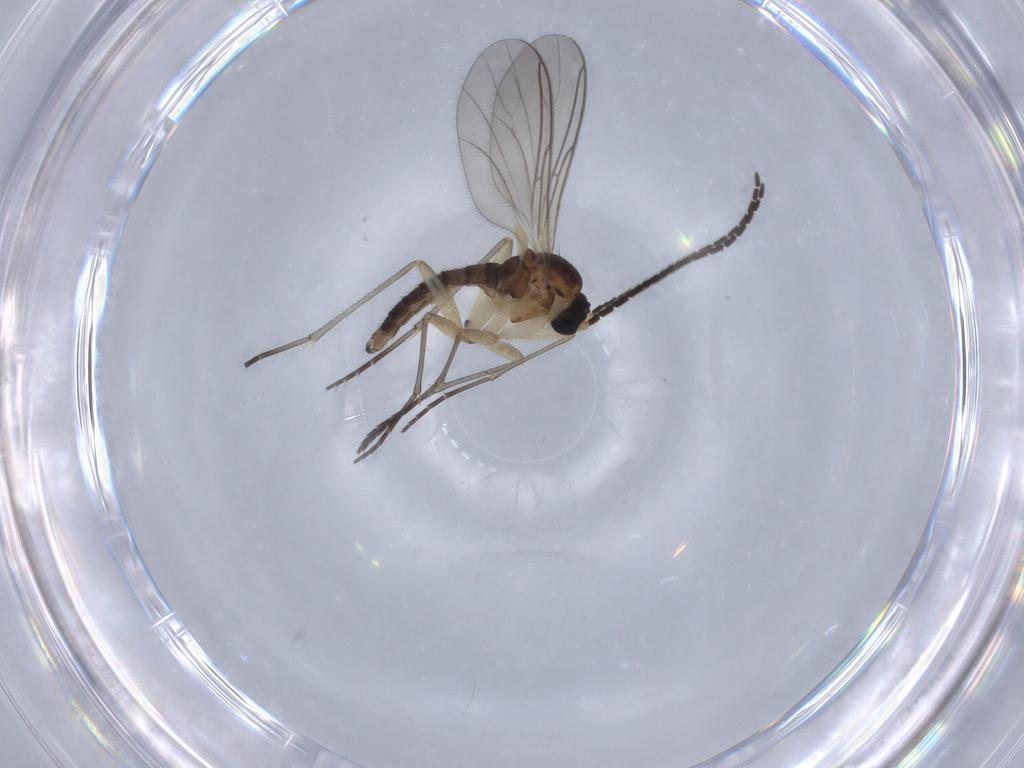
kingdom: Animalia
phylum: Arthropoda
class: Insecta
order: Diptera
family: Sciaridae
